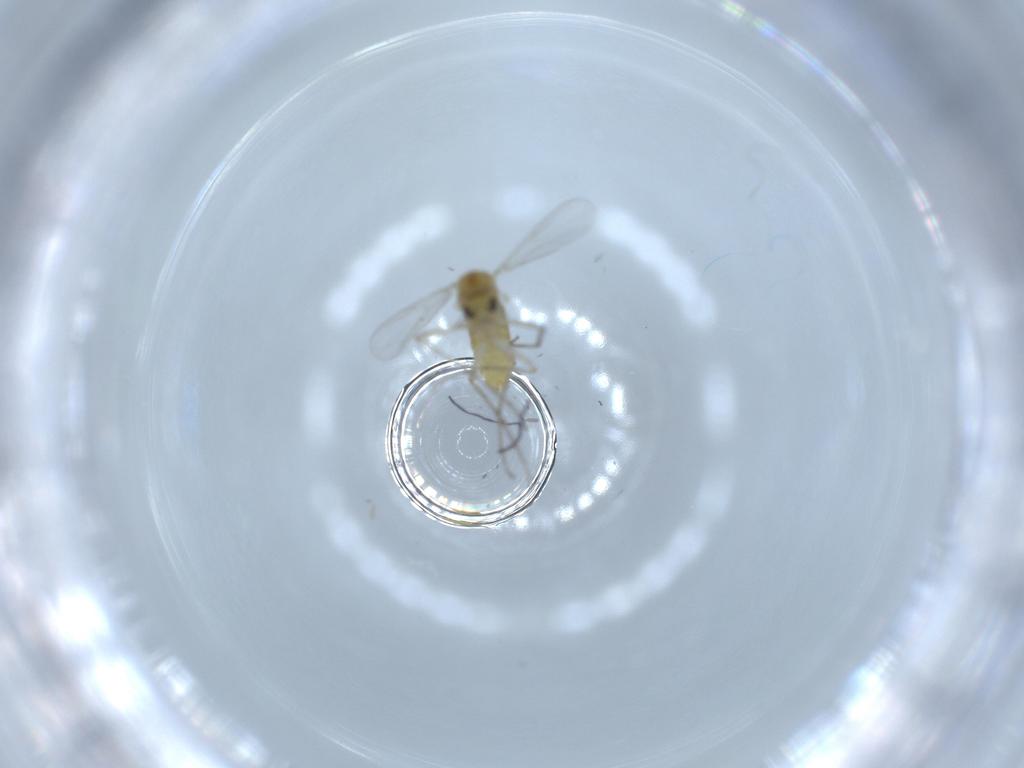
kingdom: Animalia
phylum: Arthropoda
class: Insecta
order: Diptera
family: Chironomidae
